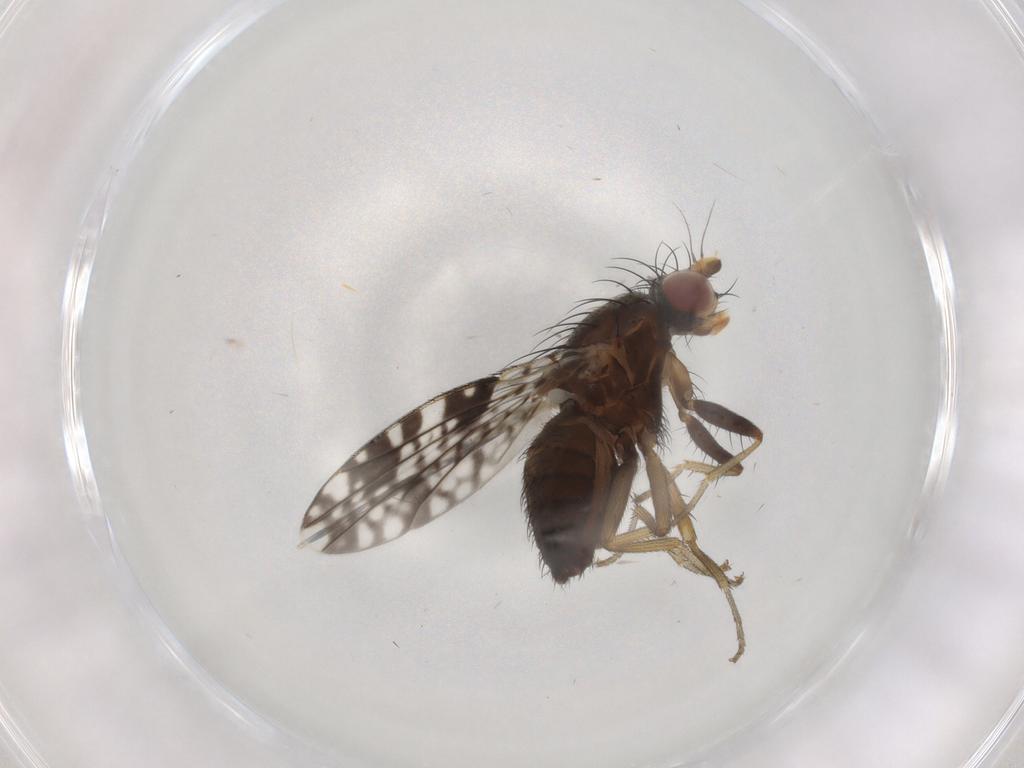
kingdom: Animalia
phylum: Arthropoda
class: Insecta
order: Diptera
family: Tephritidae
